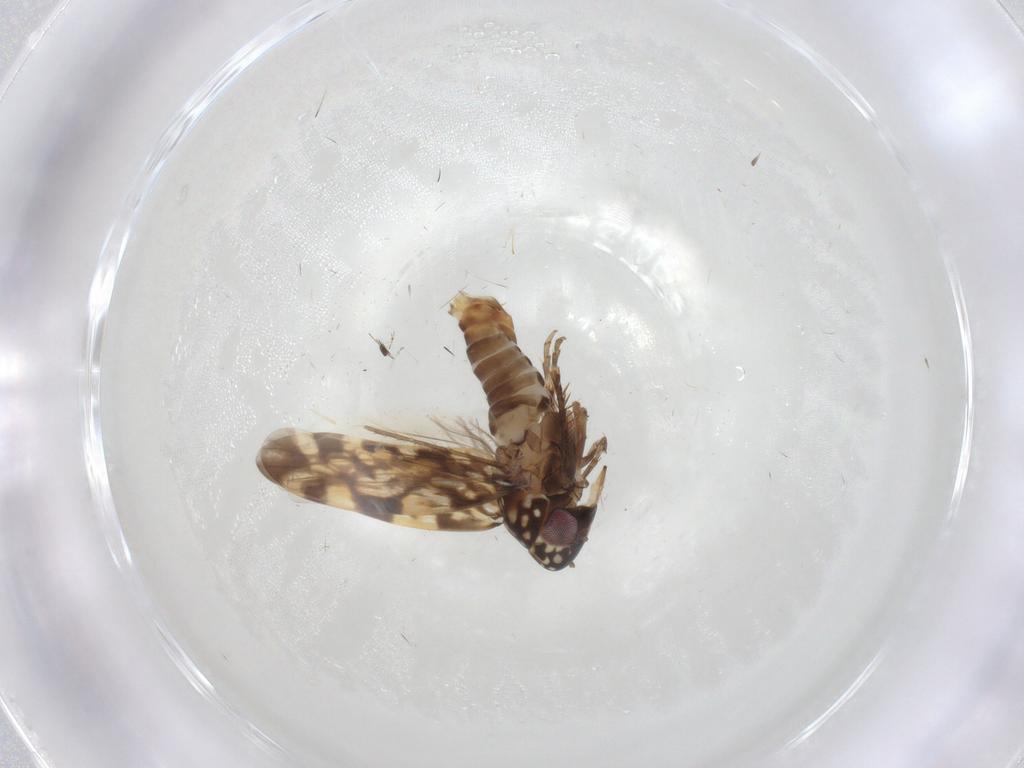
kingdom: Animalia
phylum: Arthropoda
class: Insecta
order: Hemiptera
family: Cicadellidae
